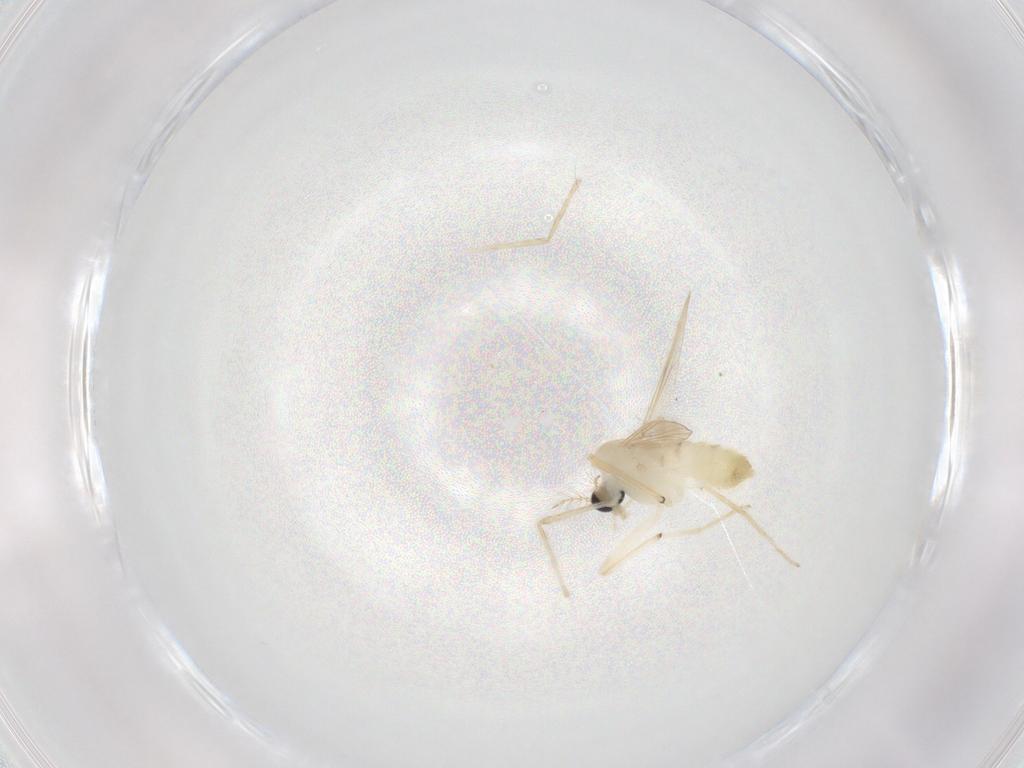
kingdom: Animalia
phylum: Arthropoda
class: Insecta
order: Diptera
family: Chironomidae
